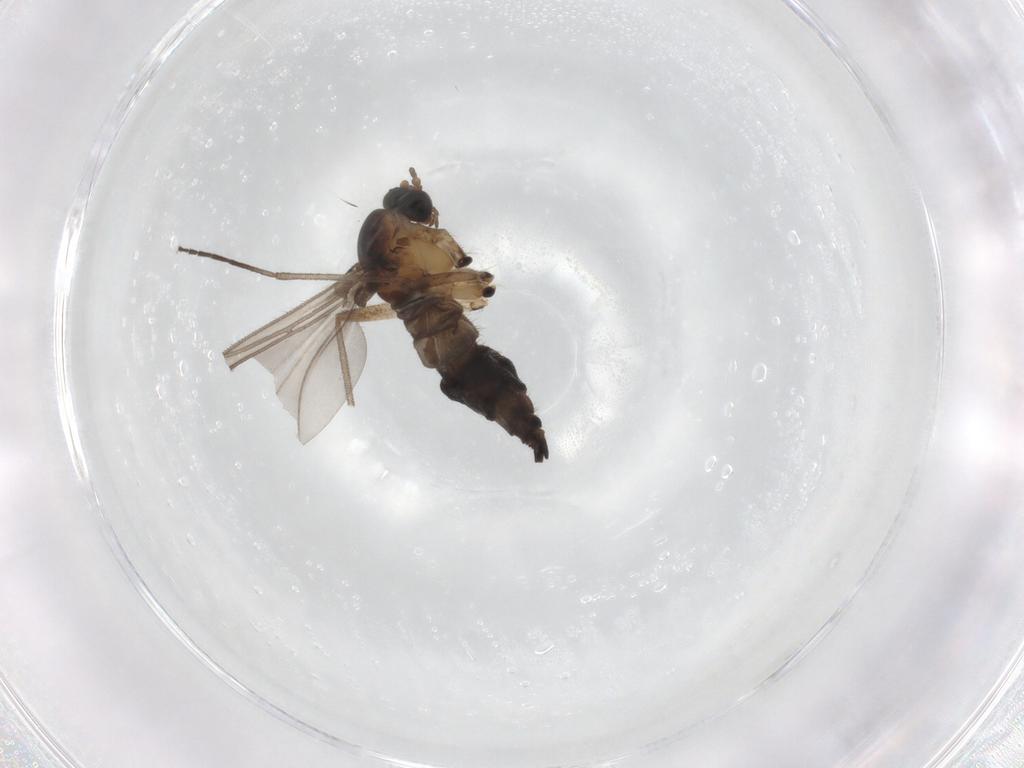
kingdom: Animalia
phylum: Arthropoda
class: Insecta
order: Diptera
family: Sciaridae
